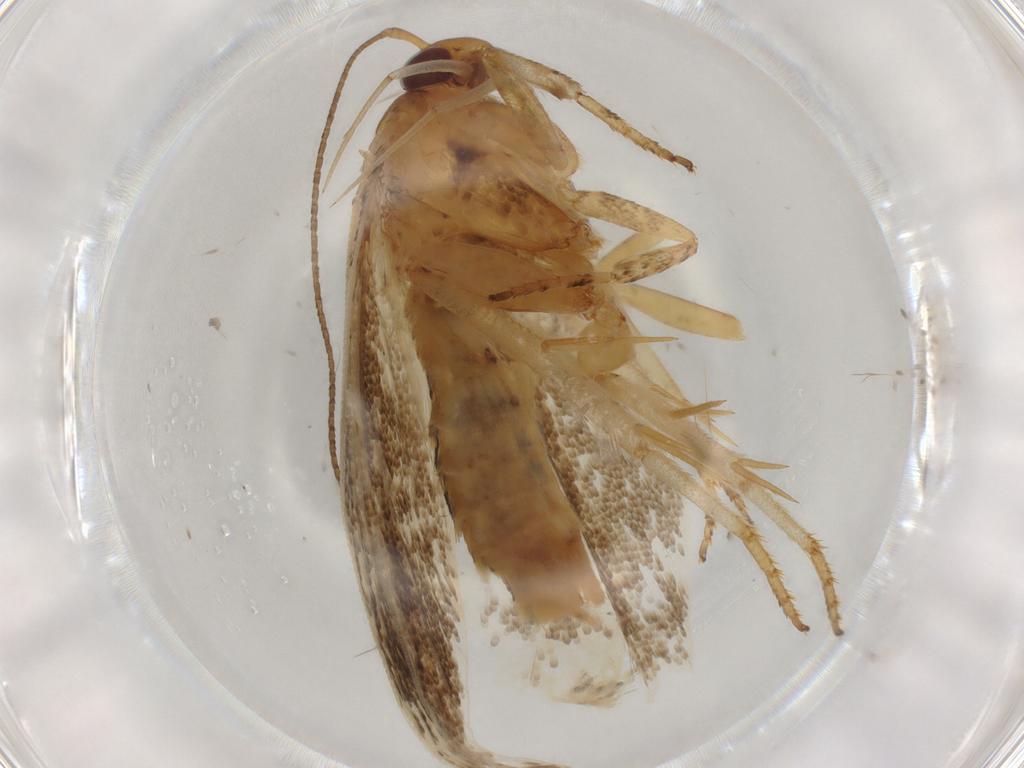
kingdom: Animalia
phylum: Arthropoda
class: Insecta
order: Lepidoptera
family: Cosmopterigidae
